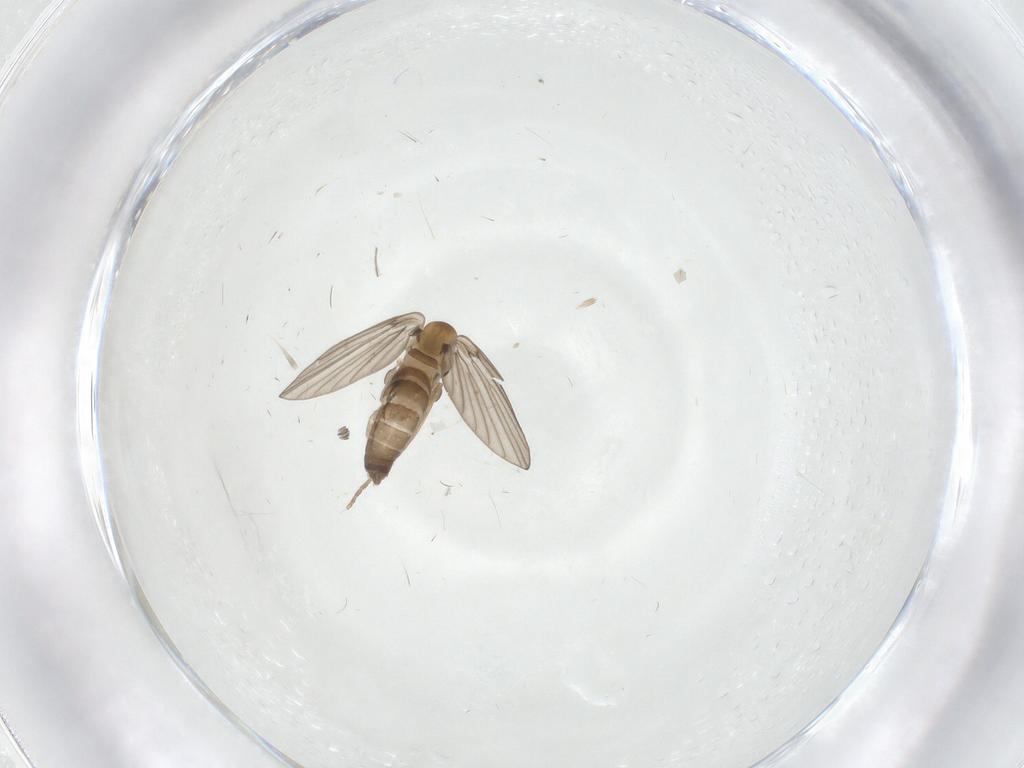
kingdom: Animalia
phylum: Arthropoda
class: Insecta
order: Diptera
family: Sciaridae
